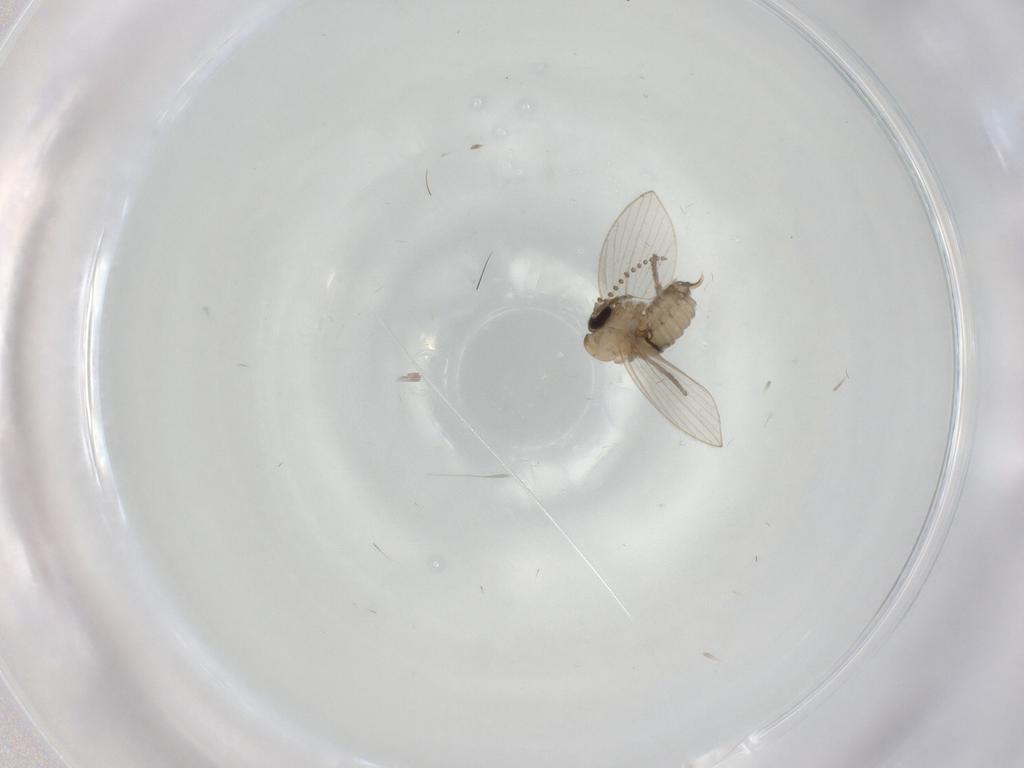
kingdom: Animalia
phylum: Arthropoda
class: Insecta
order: Diptera
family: Psychodidae
